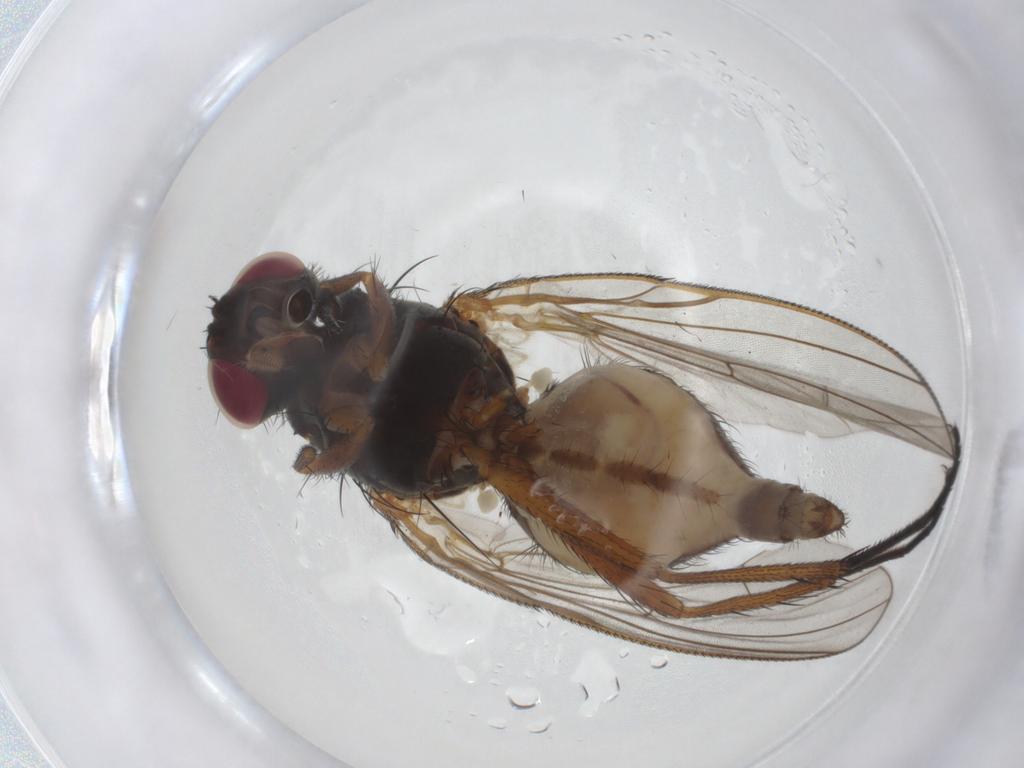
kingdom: Animalia
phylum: Arthropoda
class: Insecta
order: Diptera
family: Anthomyiidae
